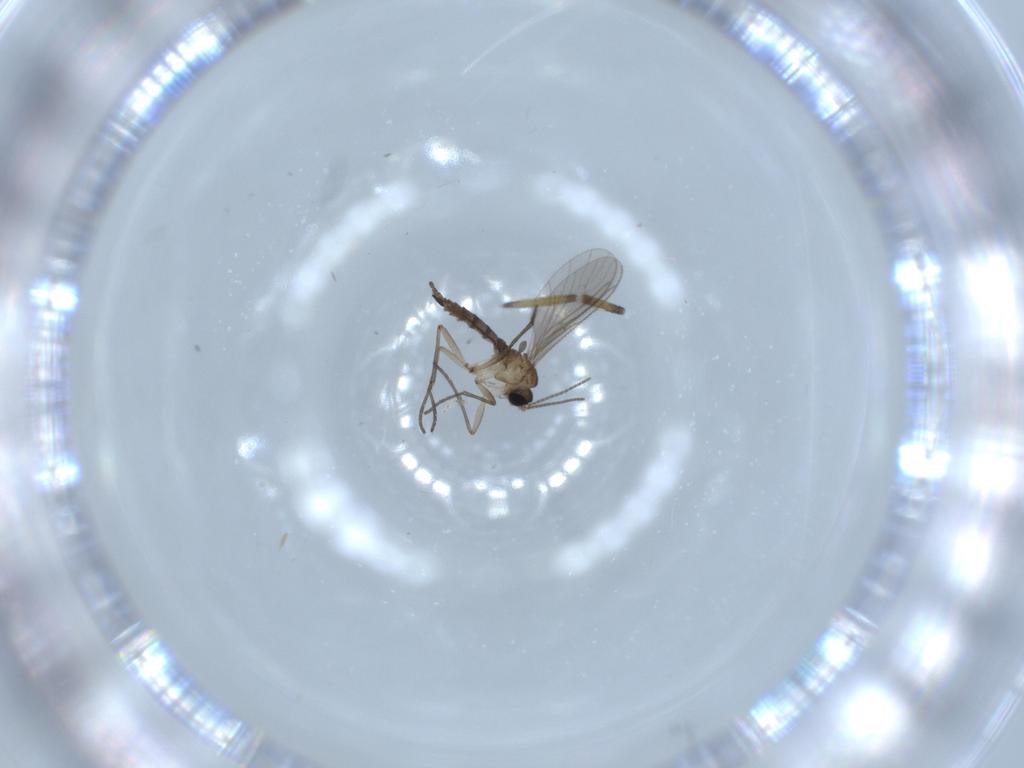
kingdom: Animalia
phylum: Arthropoda
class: Insecta
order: Diptera
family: Sciaridae
